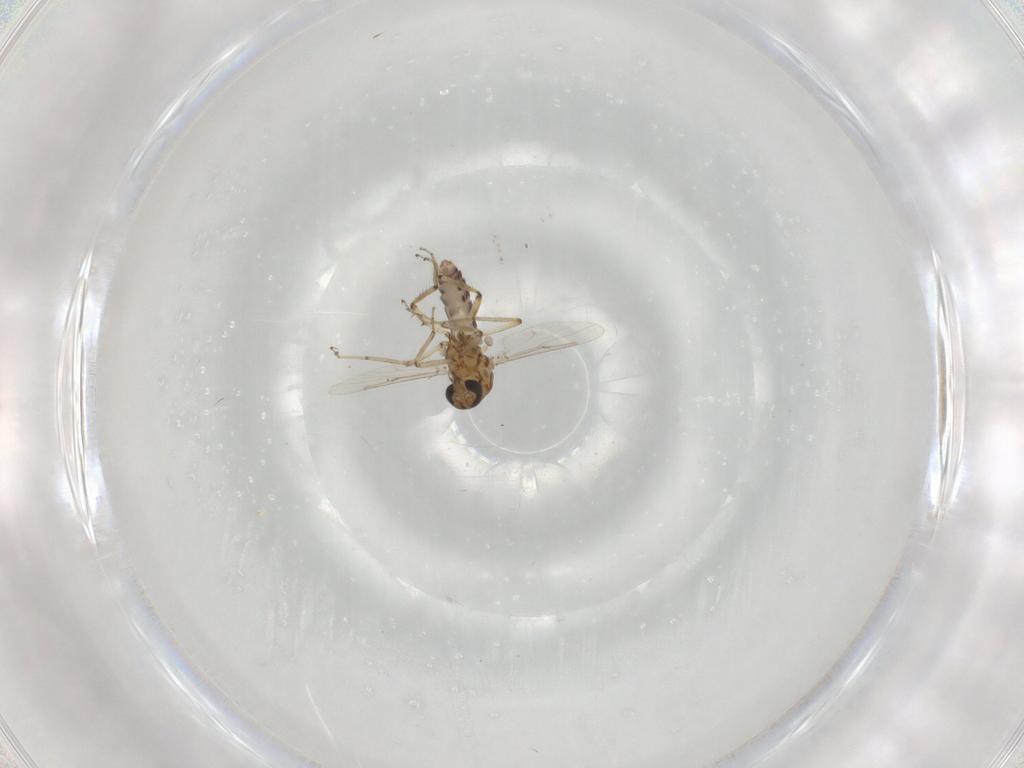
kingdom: Animalia
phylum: Arthropoda
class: Insecta
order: Diptera
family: Ceratopogonidae
